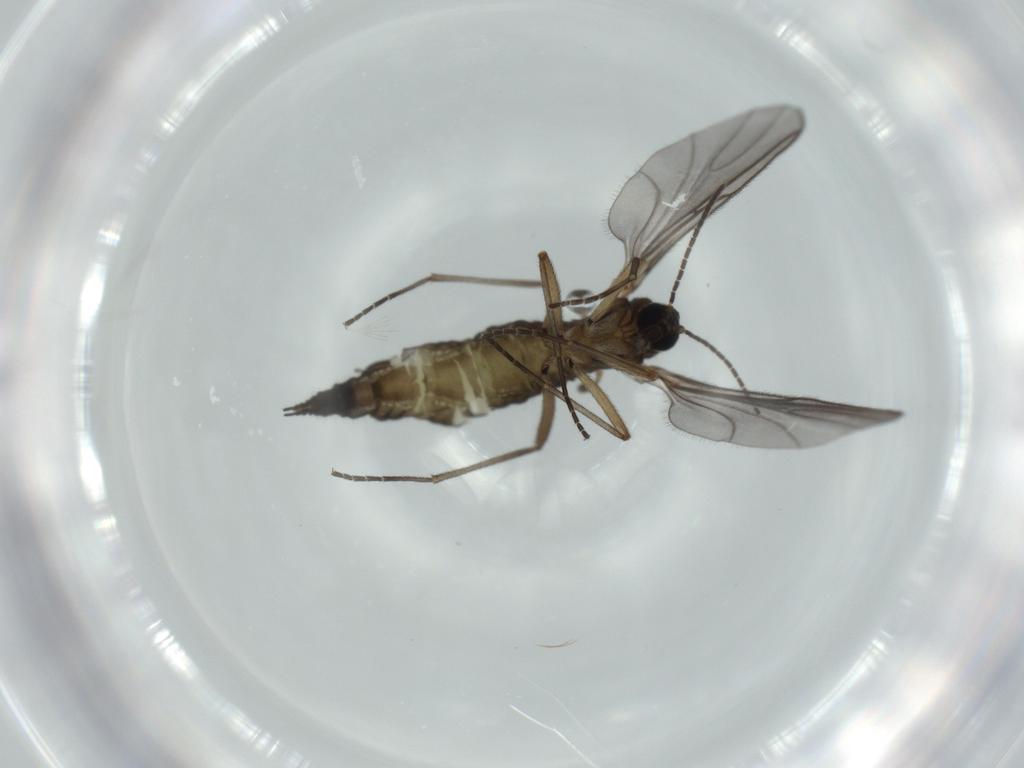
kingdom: Animalia
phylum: Arthropoda
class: Insecta
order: Diptera
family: Sciaridae
